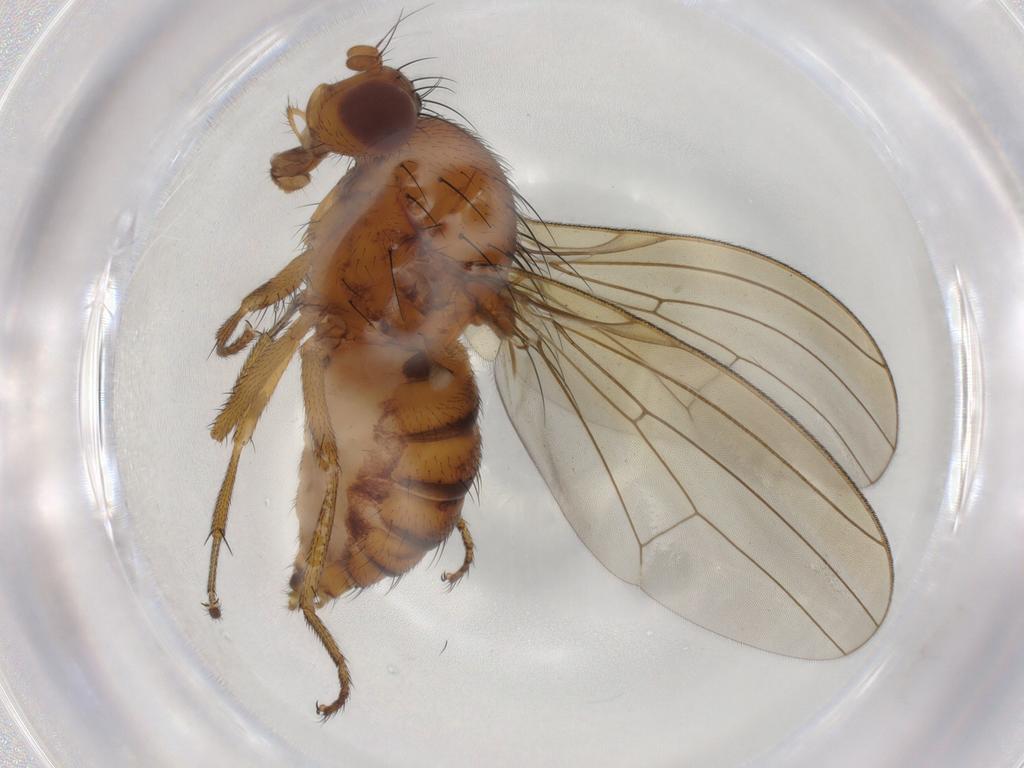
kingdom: Animalia
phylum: Arthropoda
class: Insecta
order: Diptera
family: Lauxaniidae
